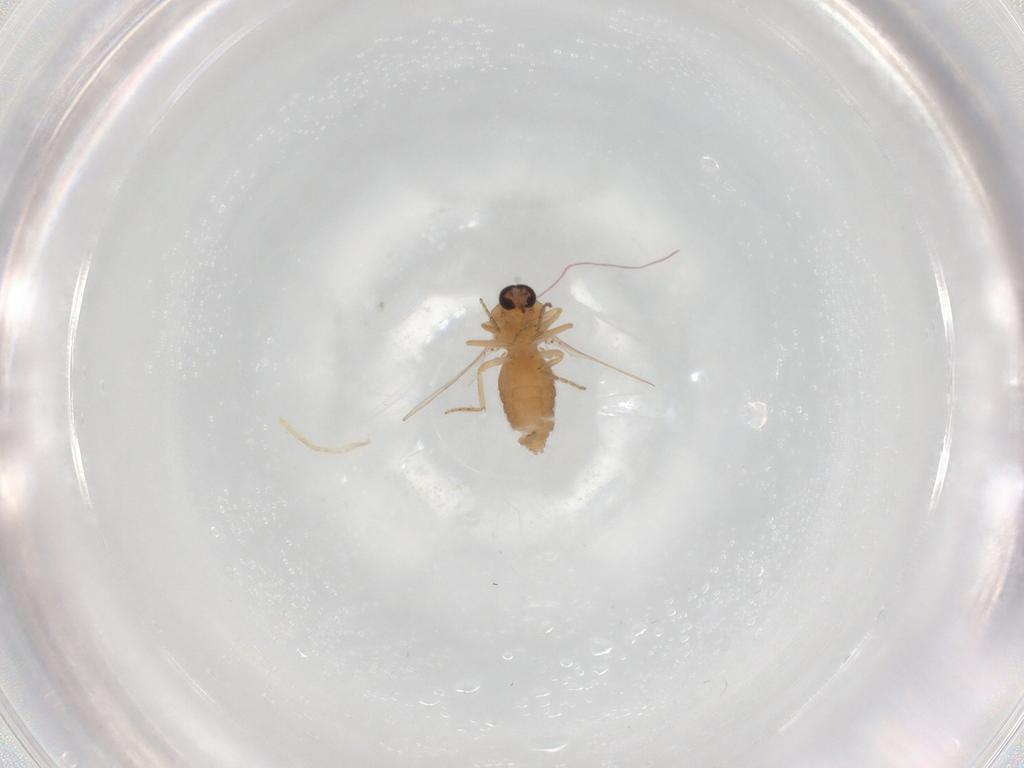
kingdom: Animalia
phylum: Arthropoda
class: Insecta
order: Diptera
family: Ceratopogonidae
